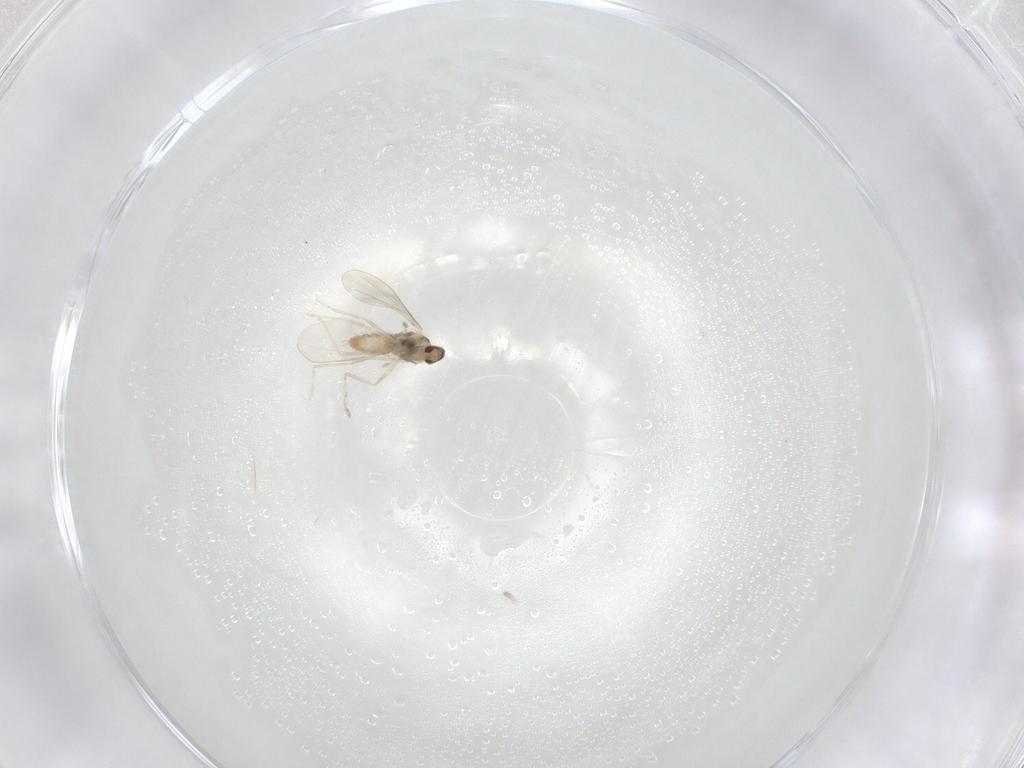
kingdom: Animalia
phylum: Arthropoda
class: Insecta
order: Diptera
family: Cecidomyiidae
